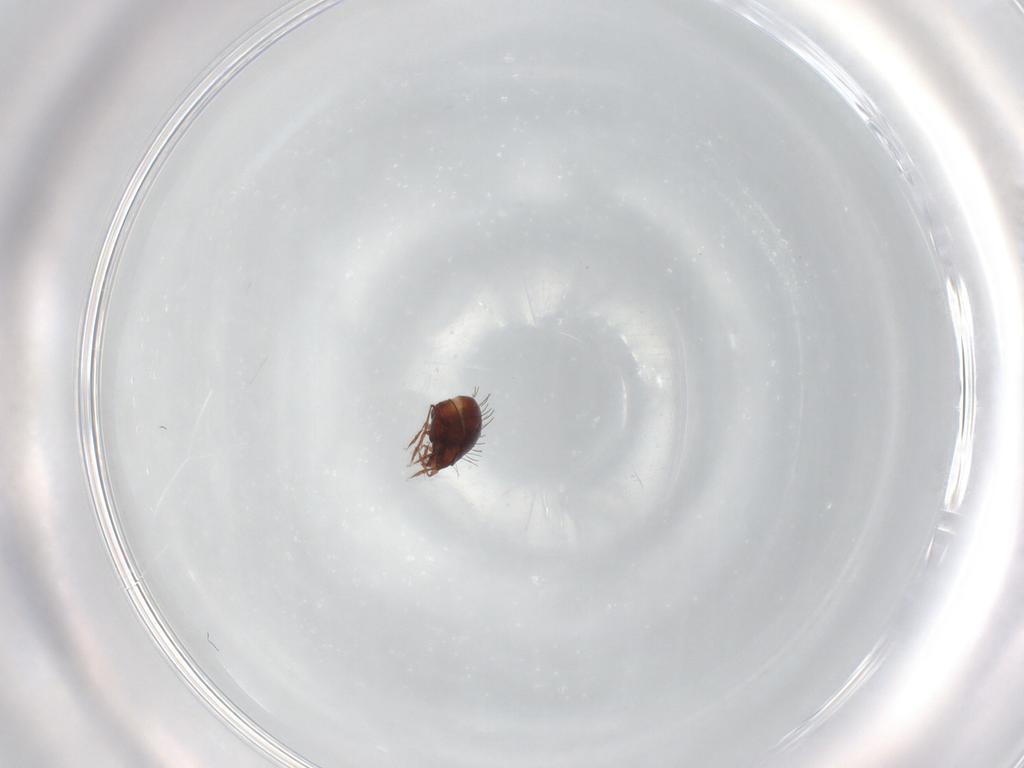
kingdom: Animalia
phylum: Arthropoda
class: Arachnida
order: Sarcoptiformes
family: Caloppiidae
